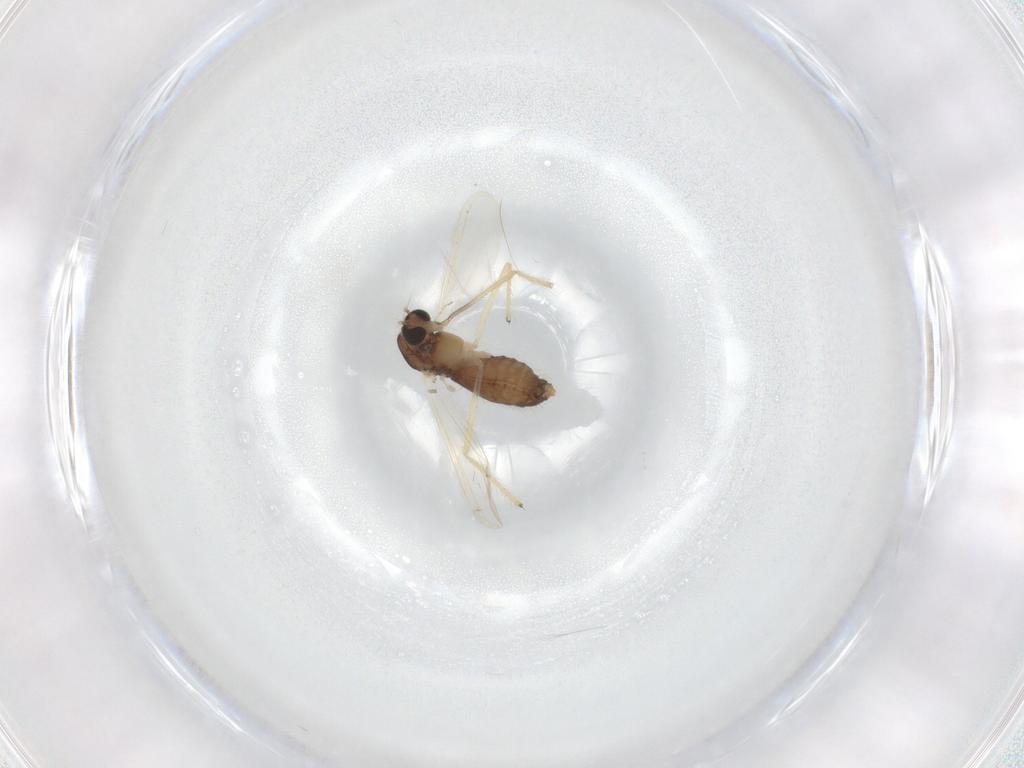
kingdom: Animalia
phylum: Arthropoda
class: Insecta
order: Diptera
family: Chironomidae
